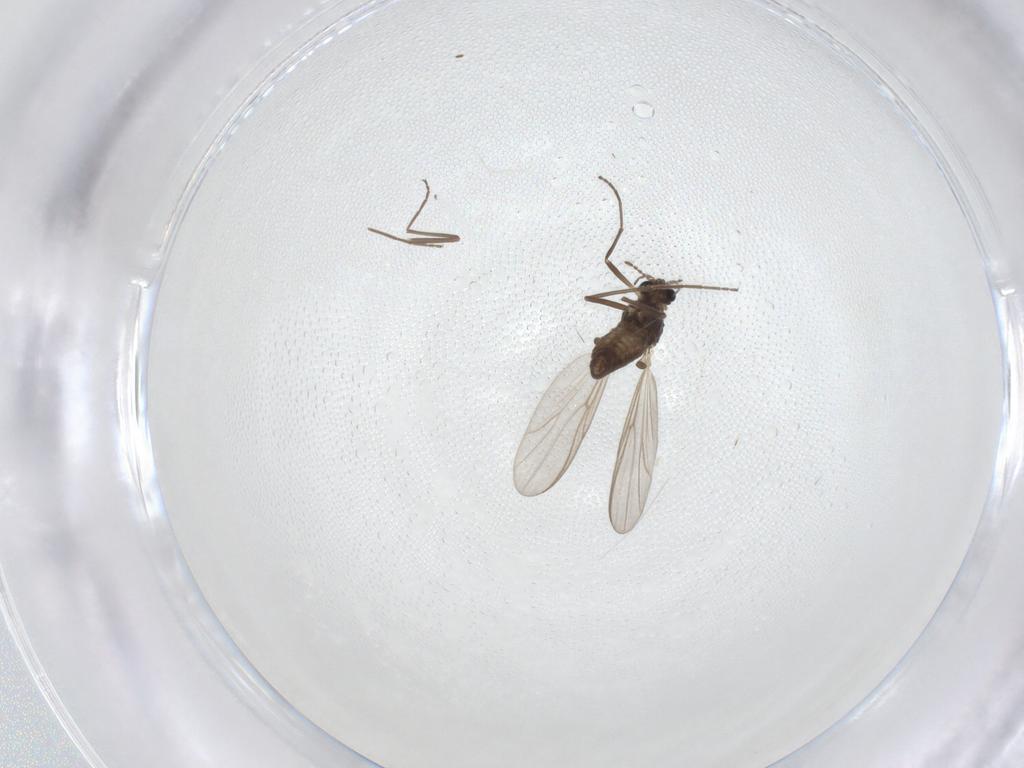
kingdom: Animalia
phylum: Arthropoda
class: Insecta
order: Diptera
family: Chironomidae
